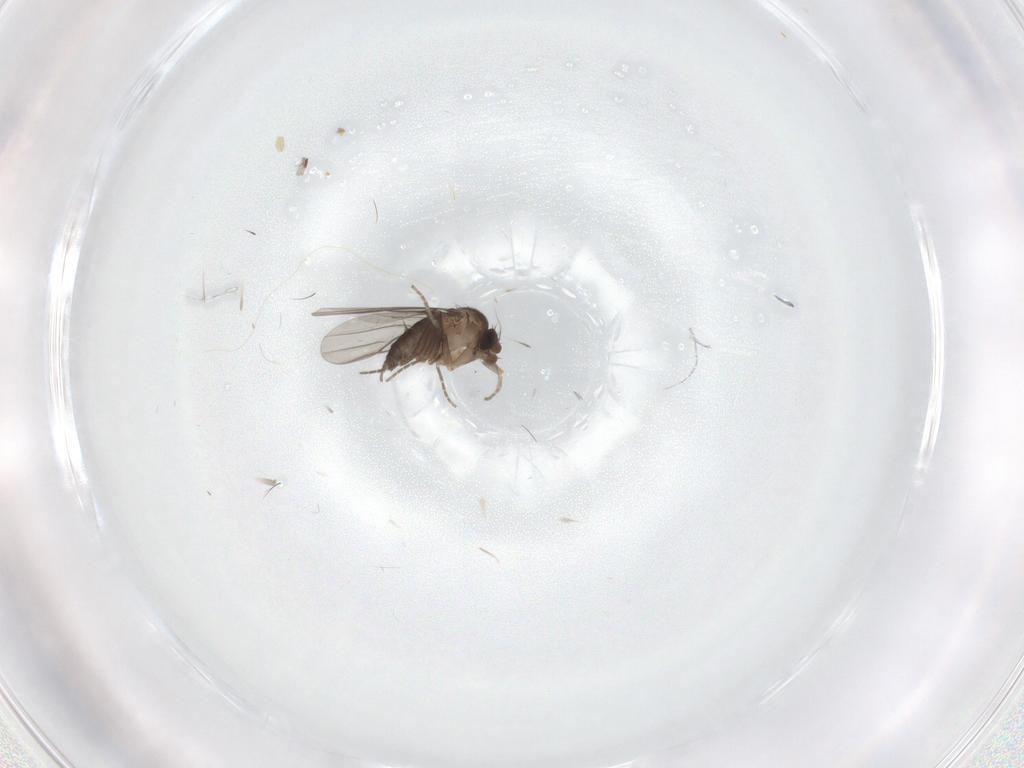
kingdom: Animalia
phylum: Arthropoda
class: Insecta
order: Diptera
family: Phoridae
